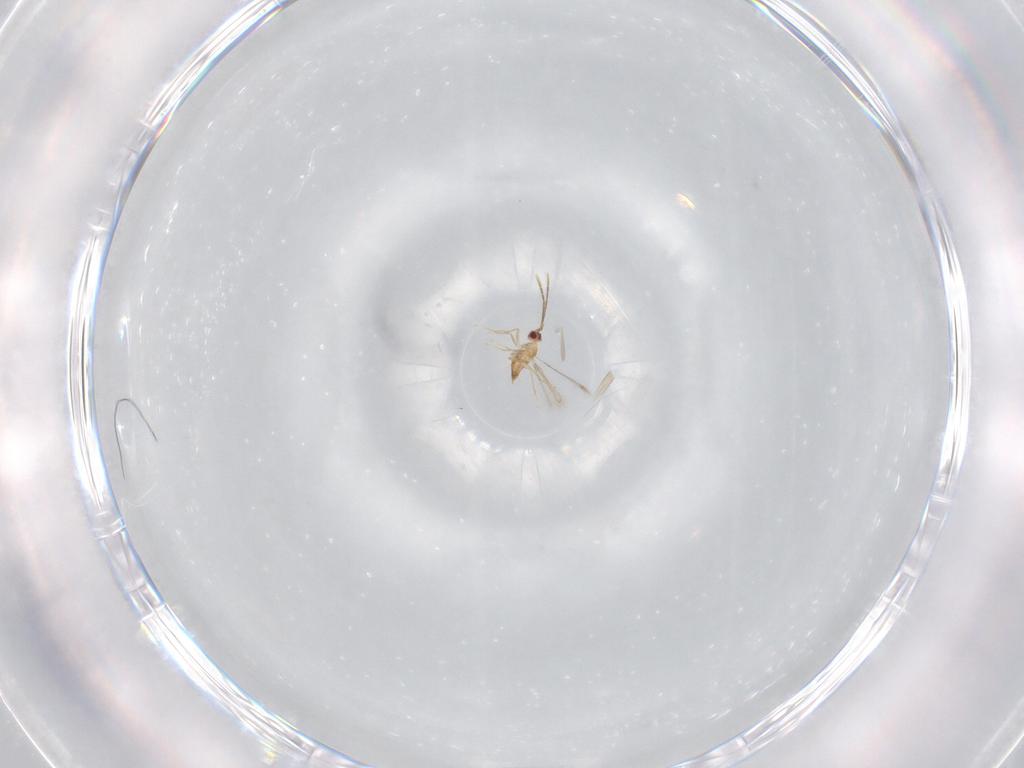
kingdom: Animalia
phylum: Arthropoda
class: Insecta
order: Hymenoptera
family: Mymaridae
